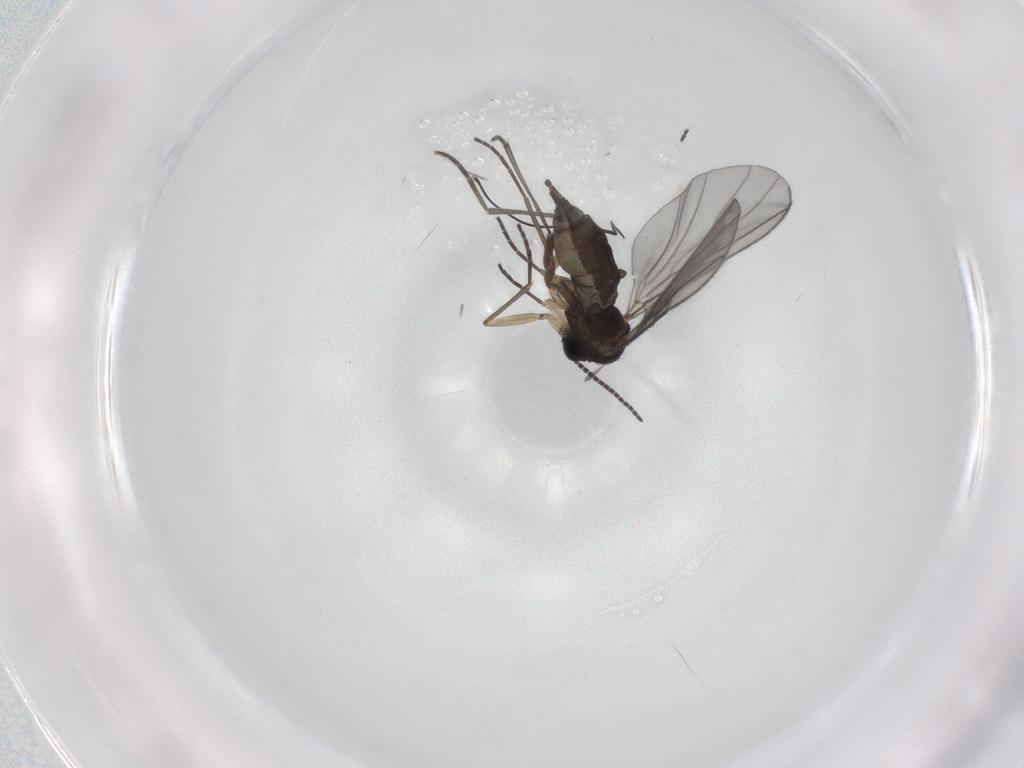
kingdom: Animalia
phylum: Arthropoda
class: Insecta
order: Diptera
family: Sciaridae
